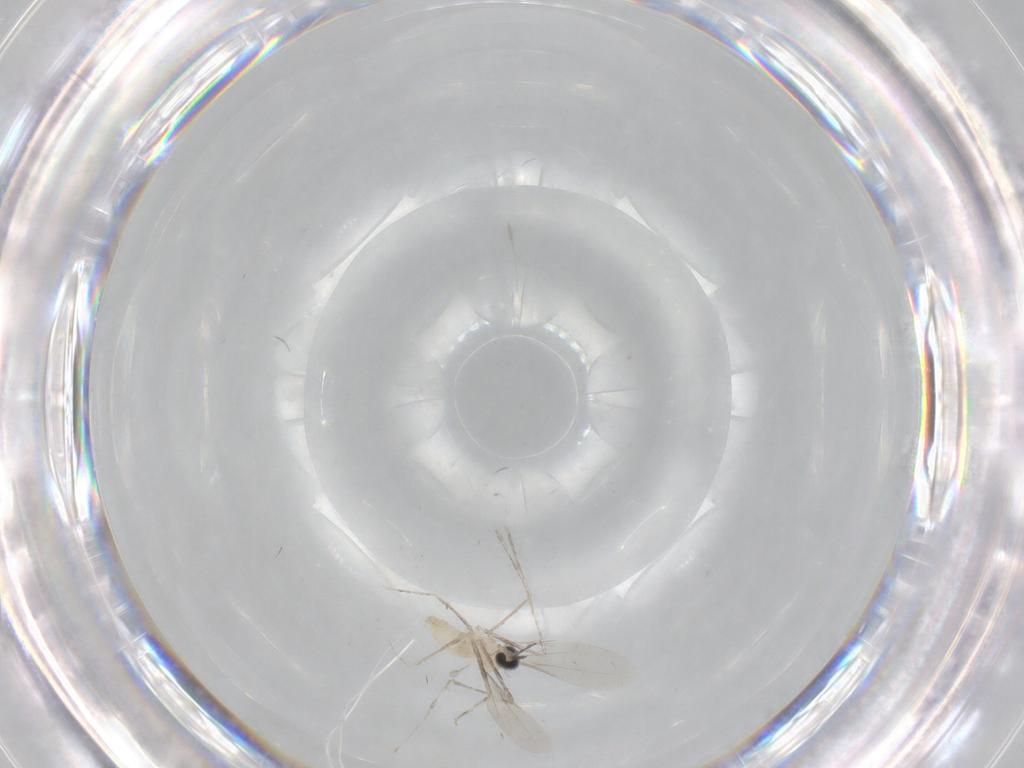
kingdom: Animalia
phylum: Arthropoda
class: Insecta
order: Diptera
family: Cecidomyiidae
